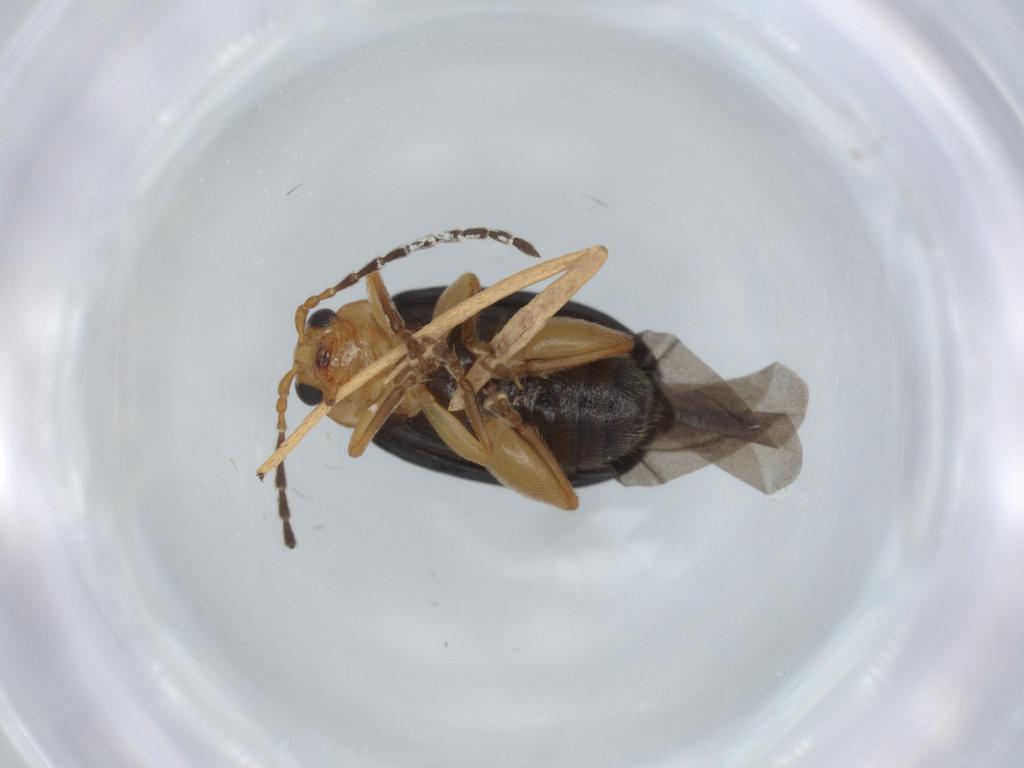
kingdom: Animalia
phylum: Arthropoda
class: Insecta
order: Coleoptera
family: Chrysomelidae
